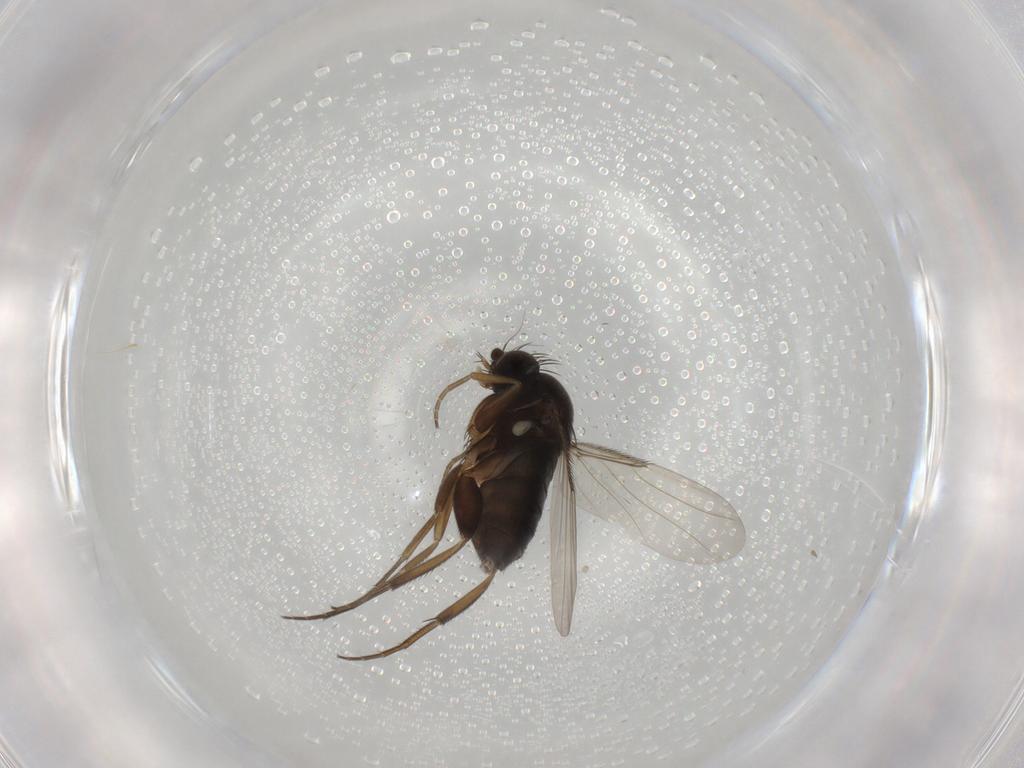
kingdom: Animalia
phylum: Arthropoda
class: Insecta
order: Diptera
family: Phoridae
